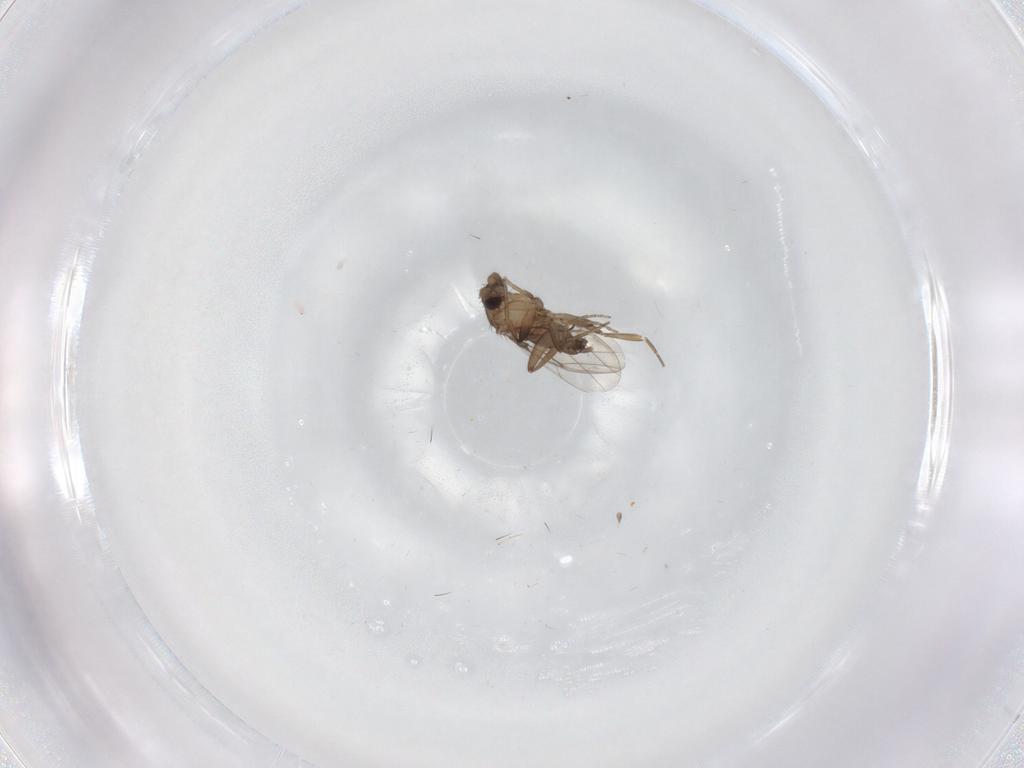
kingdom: Animalia
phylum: Arthropoda
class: Insecta
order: Diptera
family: Phoridae
